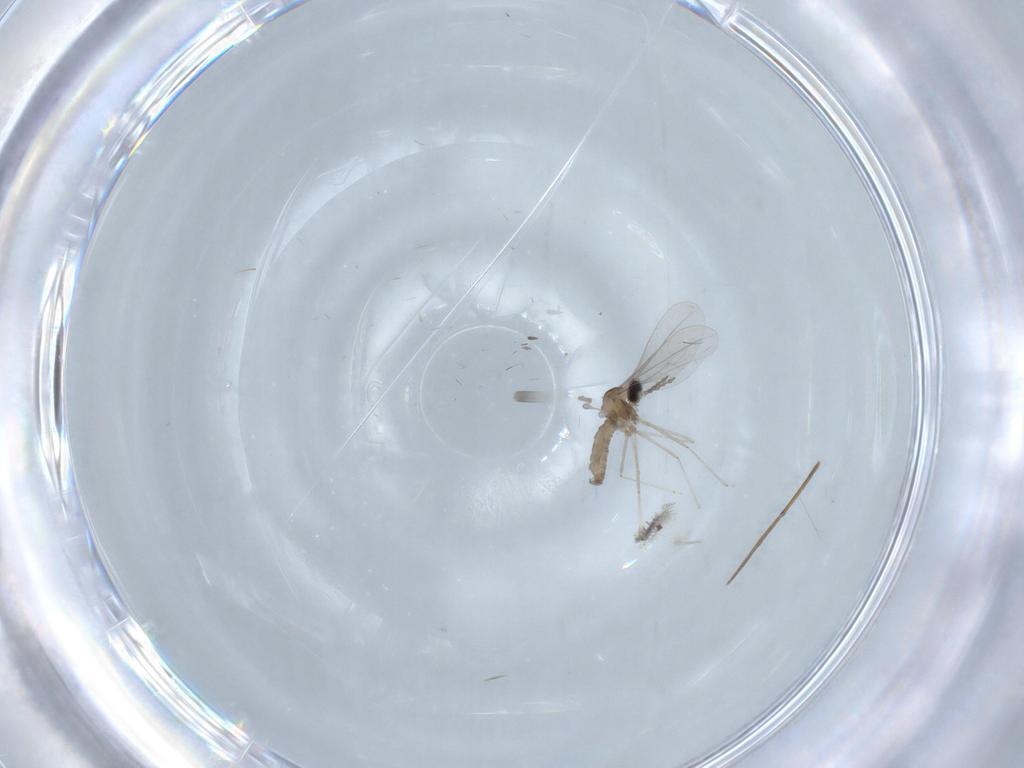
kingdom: Animalia
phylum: Arthropoda
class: Insecta
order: Diptera
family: Cecidomyiidae
